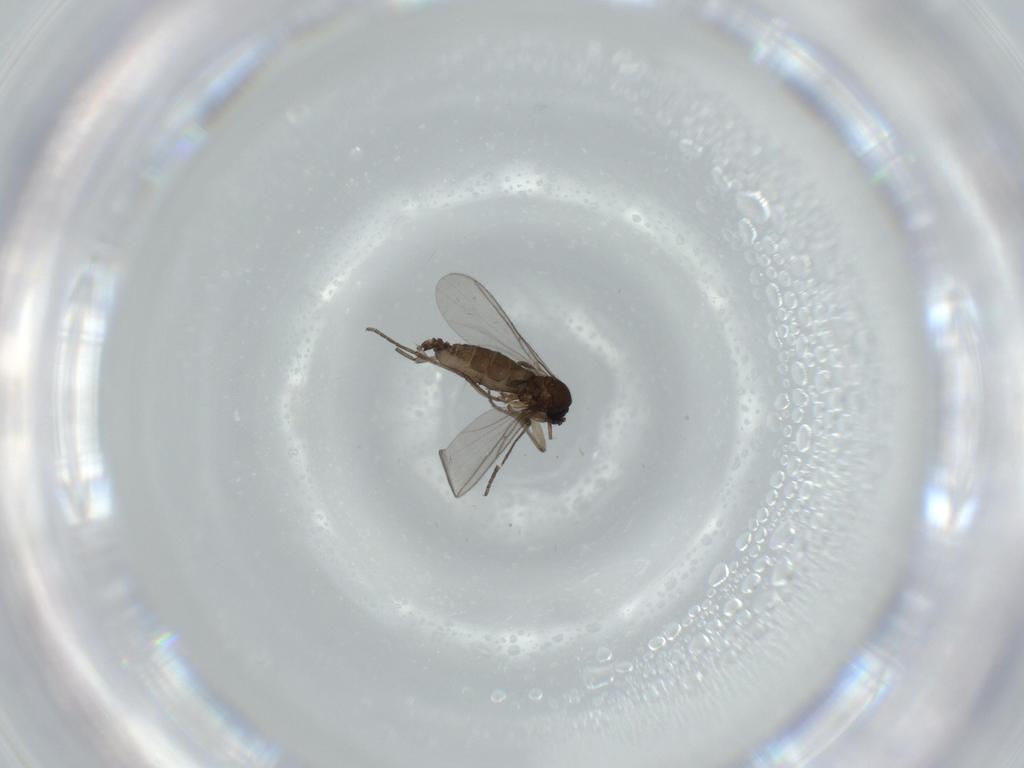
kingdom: Animalia
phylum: Arthropoda
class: Insecta
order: Diptera
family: Sciaridae
